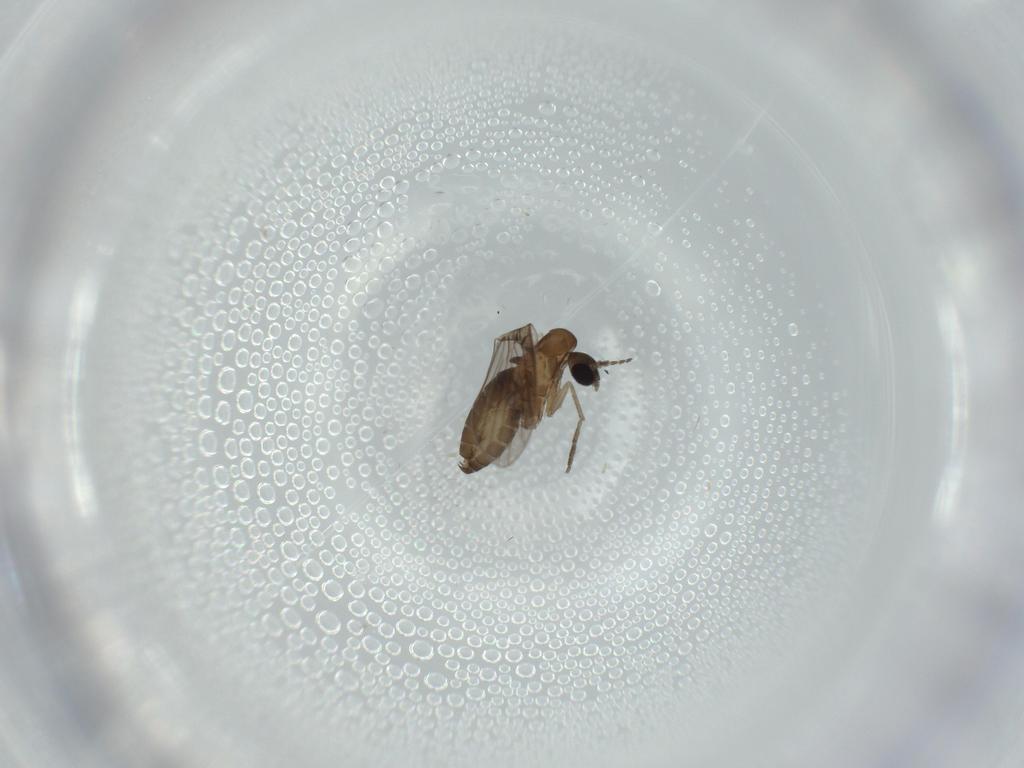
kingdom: Animalia
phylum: Arthropoda
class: Insecta
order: Diptera
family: Psychodidae
